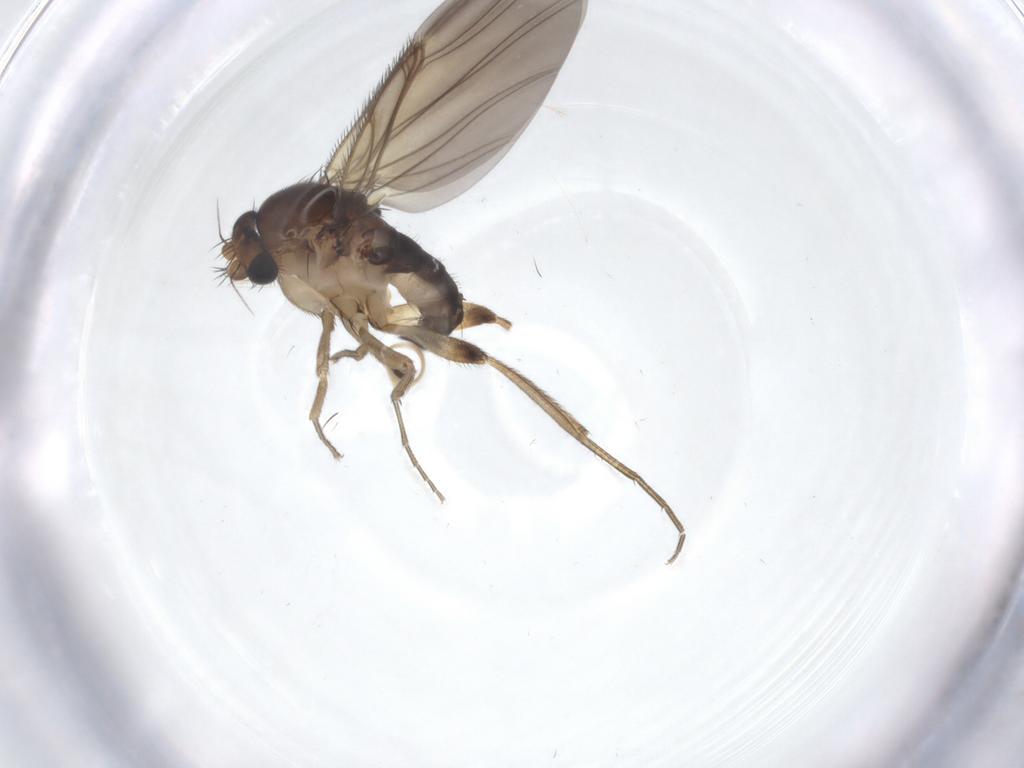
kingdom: Animalia
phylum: Arthropoda
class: Insecta
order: Diptera
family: Phoridae
